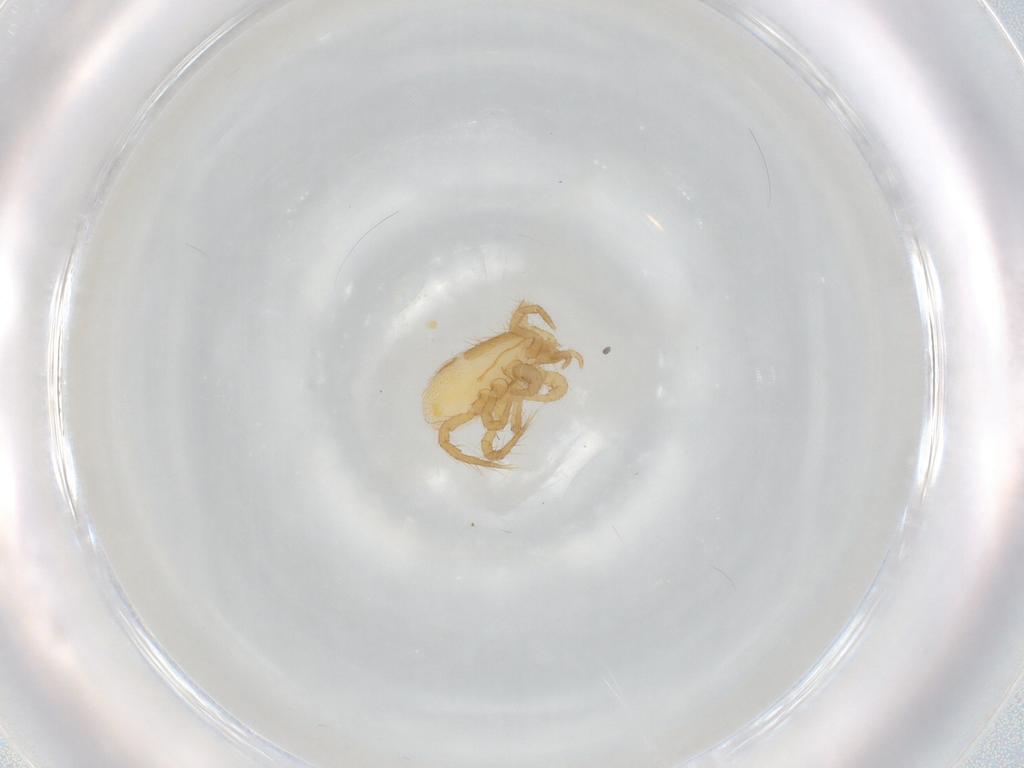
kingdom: Animalia
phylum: Arthropoda
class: Arachnida
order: Mesostigmata
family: Parasitidae
